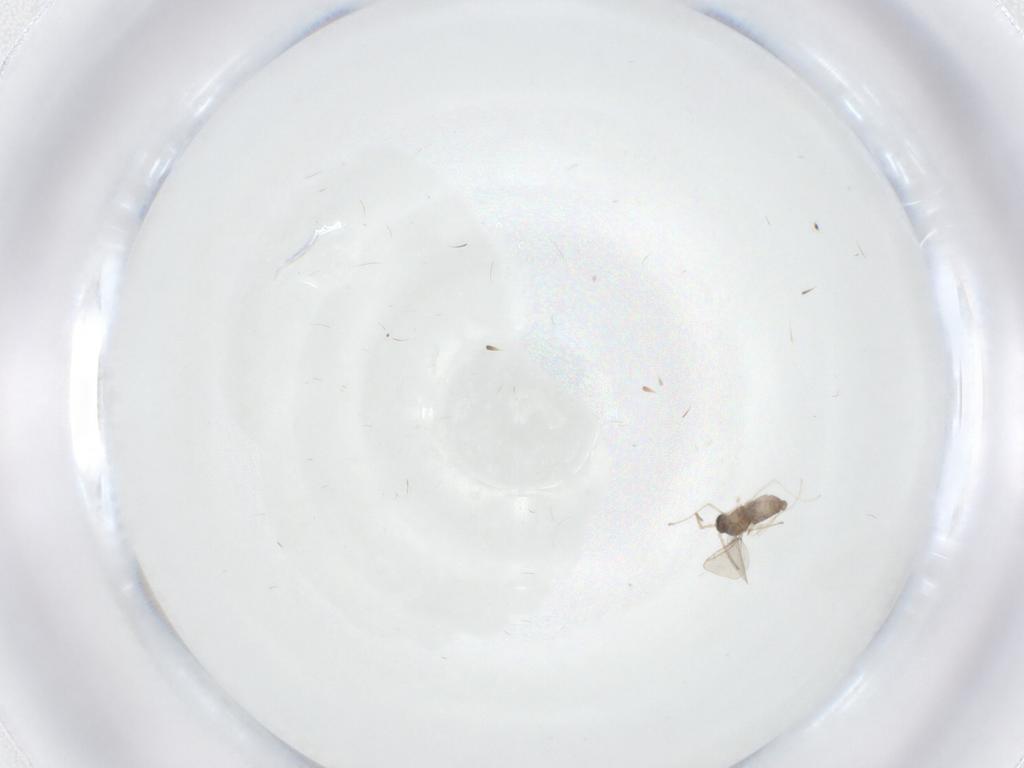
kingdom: Animalia
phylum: Arthropoda
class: Insecta
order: Diptera
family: Cecidomyiidae
